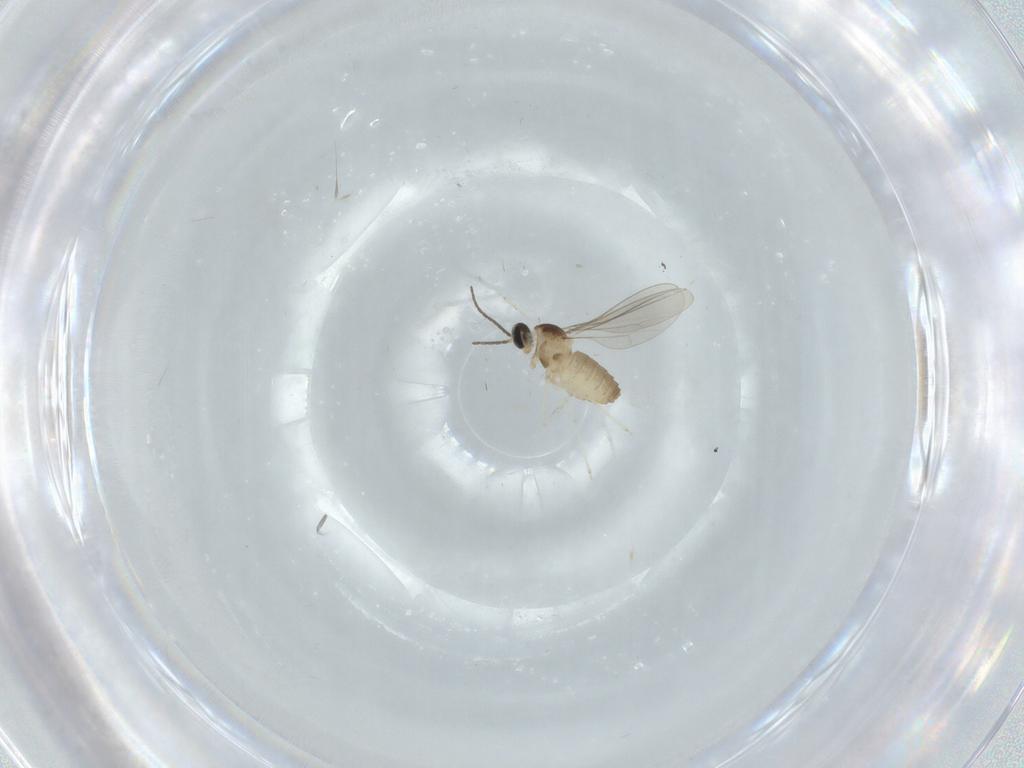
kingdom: Animalia
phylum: Arthropoda
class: Insecta
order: Diptera
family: Cecidomyiidae
